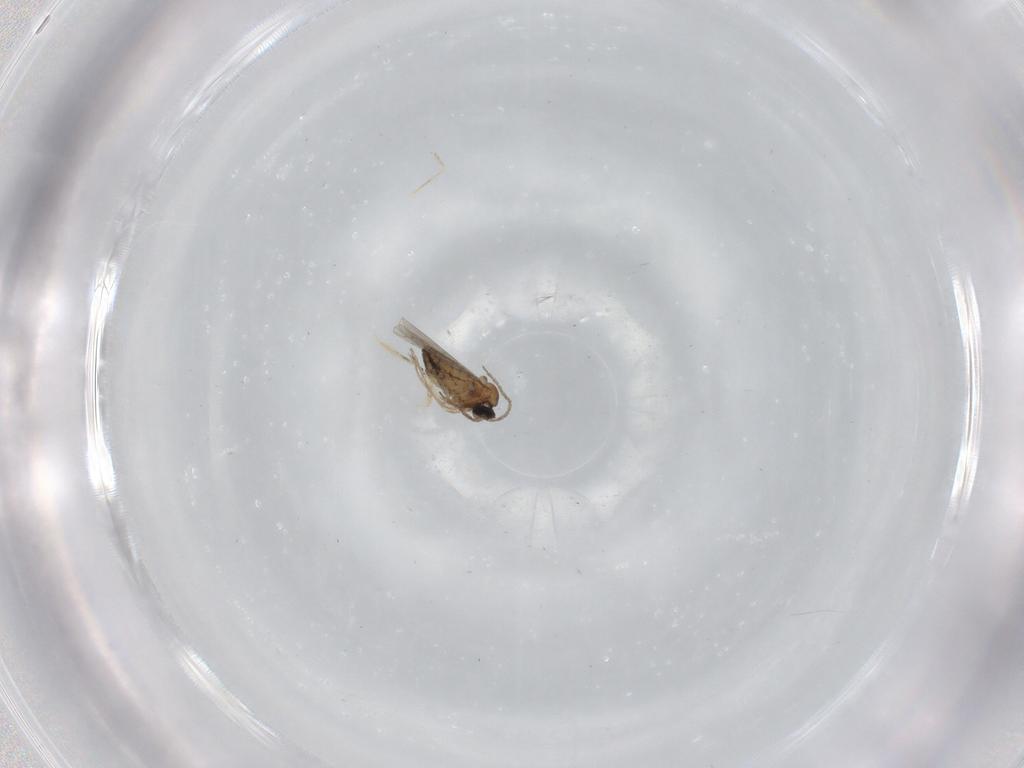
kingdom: Animalia
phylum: Arthropoda
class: Insecta
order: Diptera
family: Cecidomyiidae
